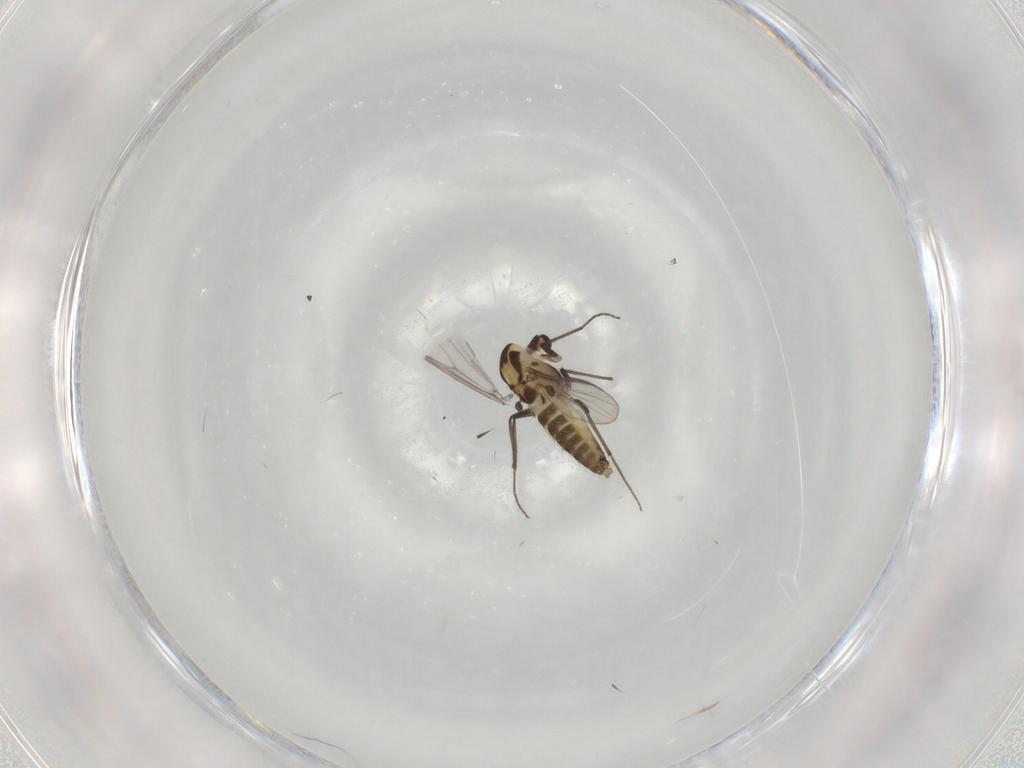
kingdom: Animalia
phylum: Arthropoda
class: Insecta
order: Diptera
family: Chironomidae
